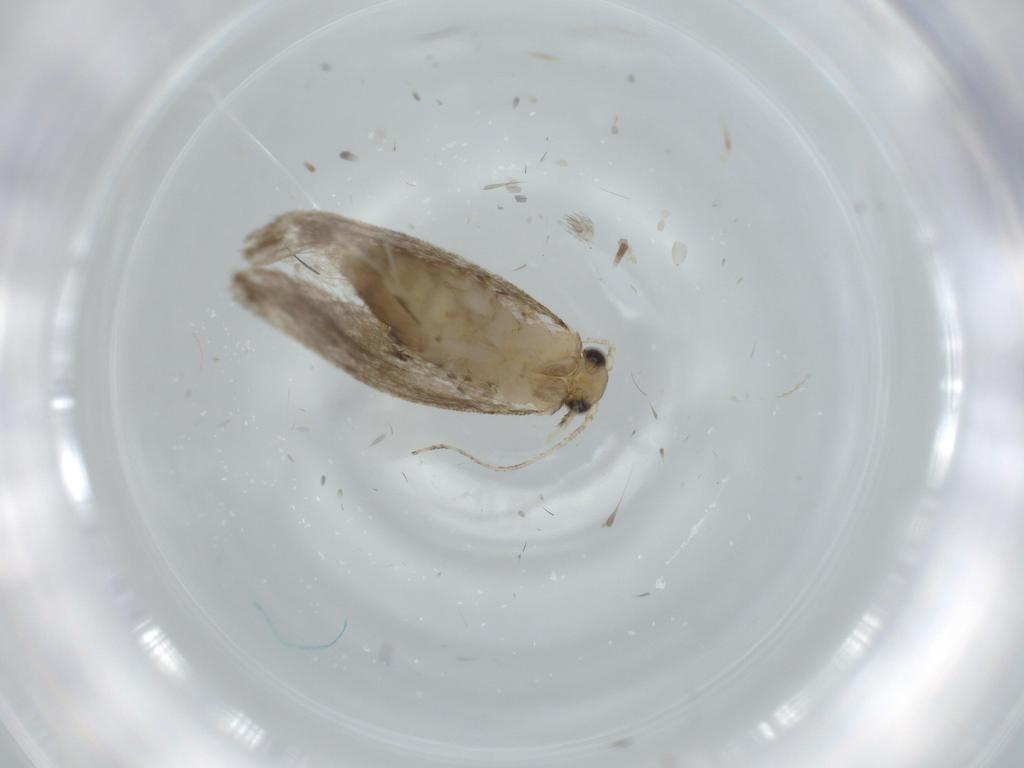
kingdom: Animalia
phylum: Arthropoda
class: Insecta
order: Lepidoptera
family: Tineidae
